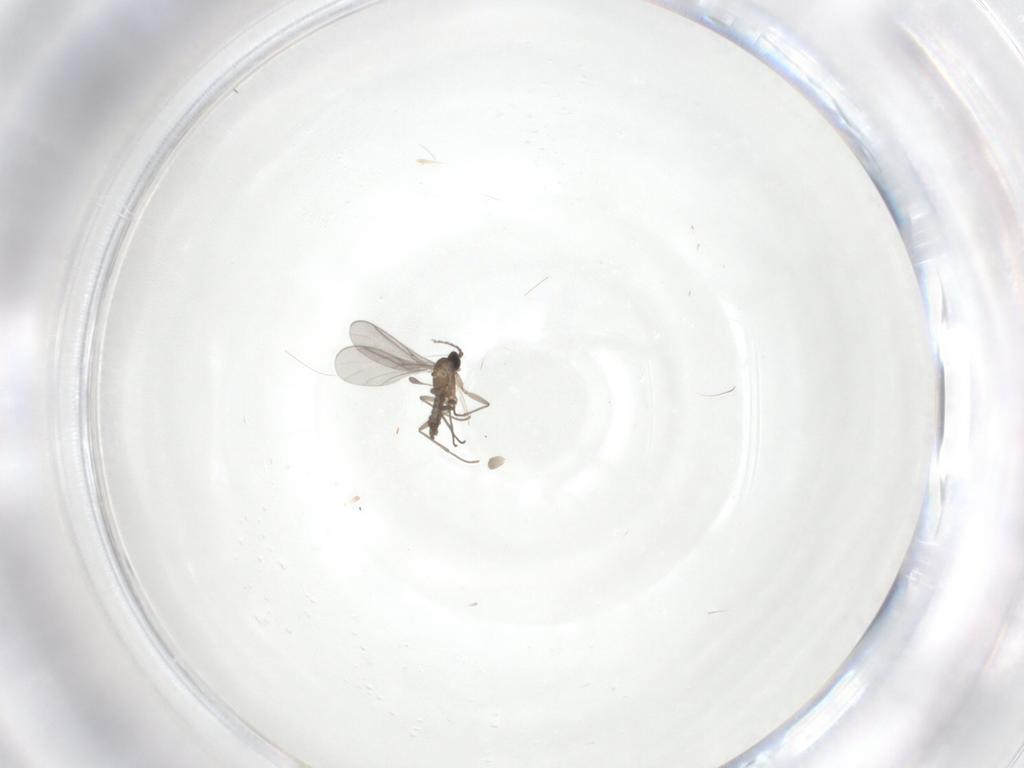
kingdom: Animalia
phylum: Arthropoda
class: Insecta
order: Diptera
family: Sciaridae
